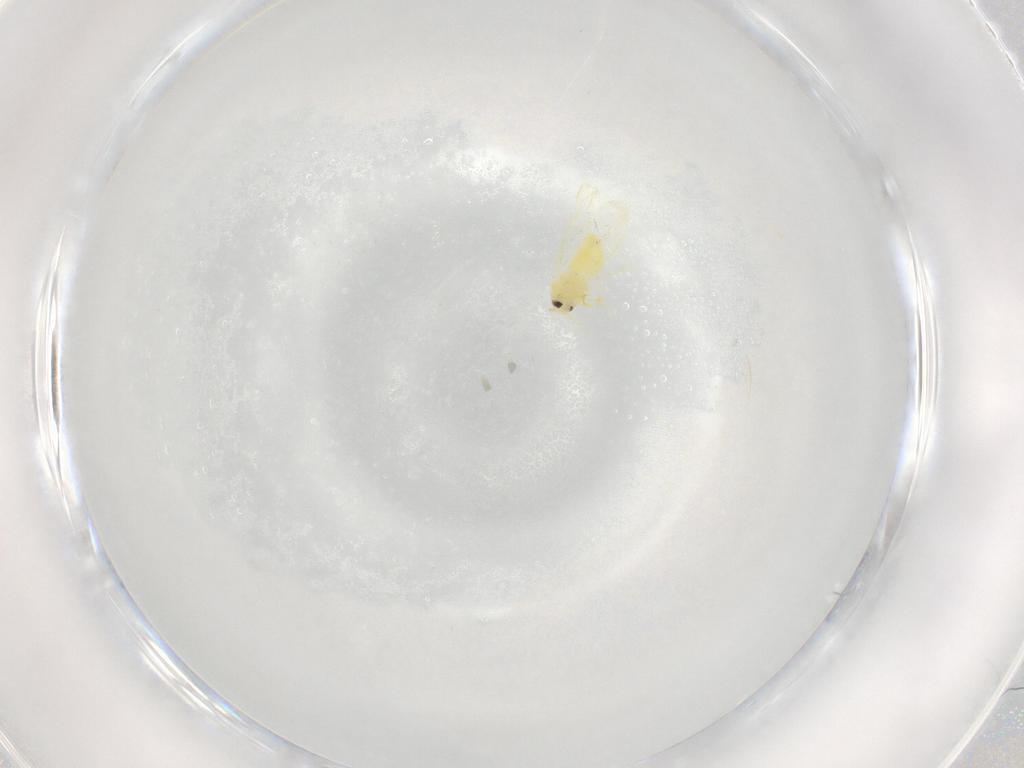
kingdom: Animalia
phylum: Arthropoda
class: Insecta
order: Hemiptera
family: Aleyrodidae
